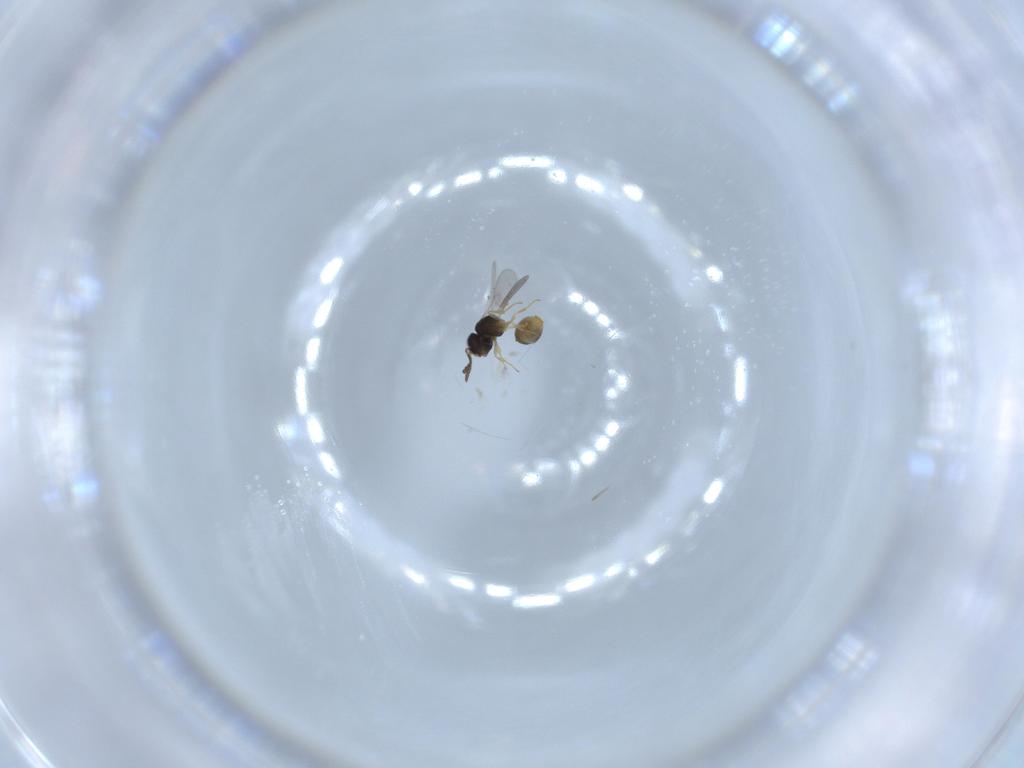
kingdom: Animalia
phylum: Arthropoda
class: Insecta
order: Hymenoptera
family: Scelionidae
